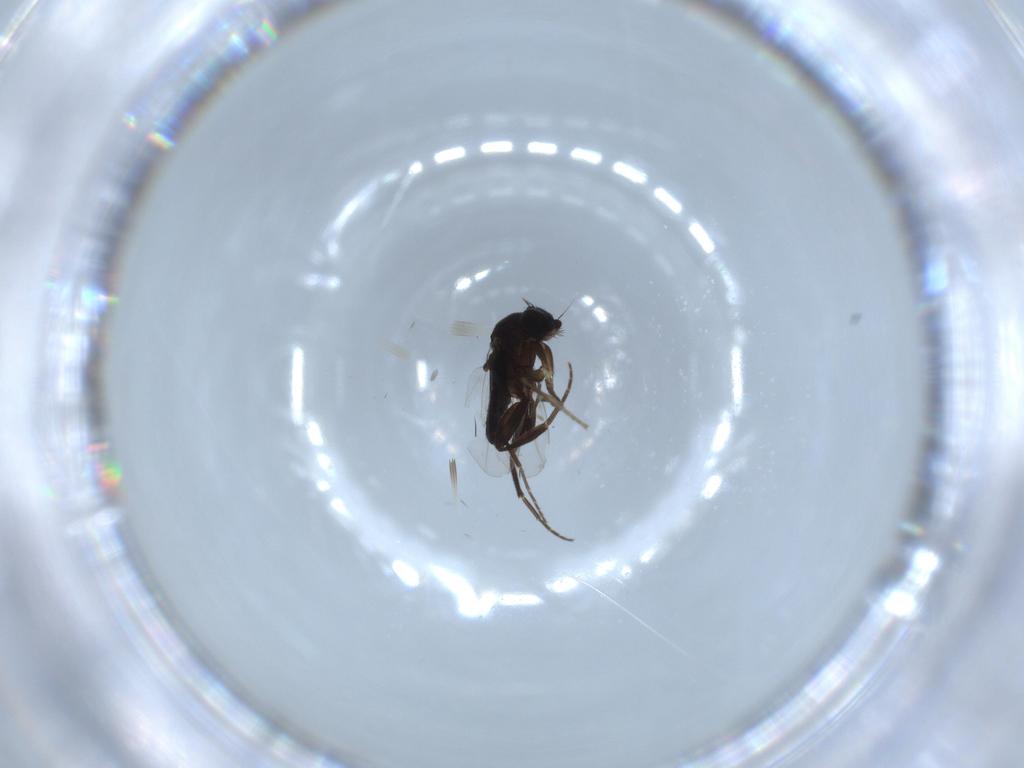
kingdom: Animalia
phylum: Arthropoda
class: Insecta
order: Diptera
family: Phoridae
